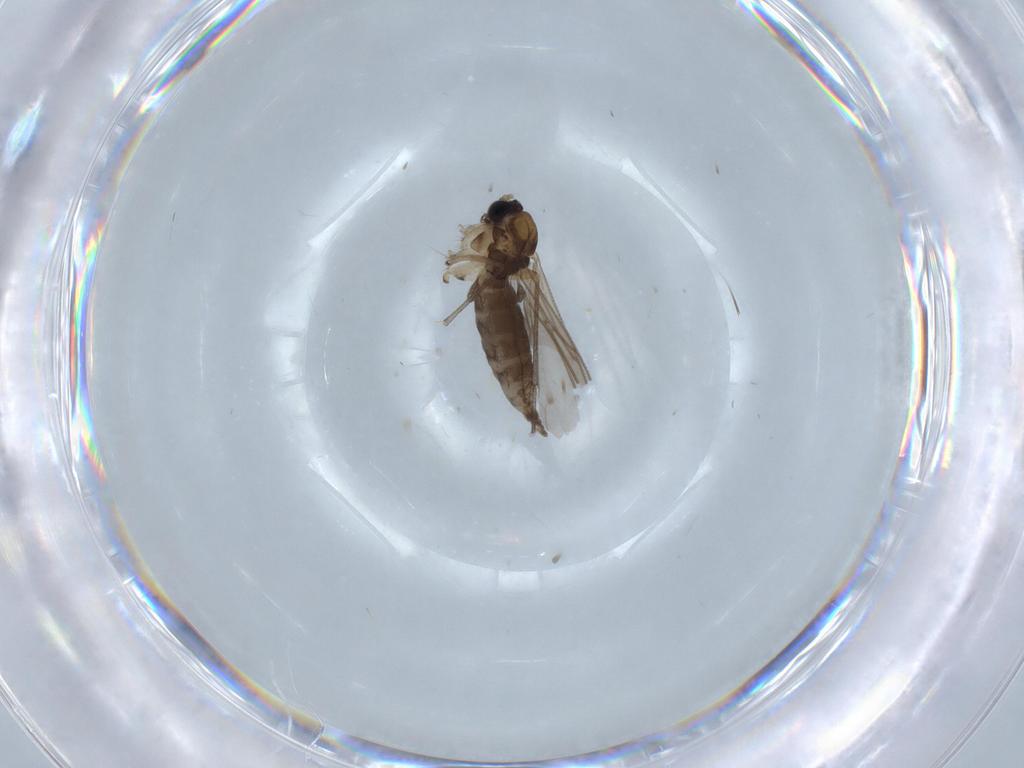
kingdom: Animalia
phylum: Arthropoda
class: Insecta
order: Diptera
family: Sciaridae
